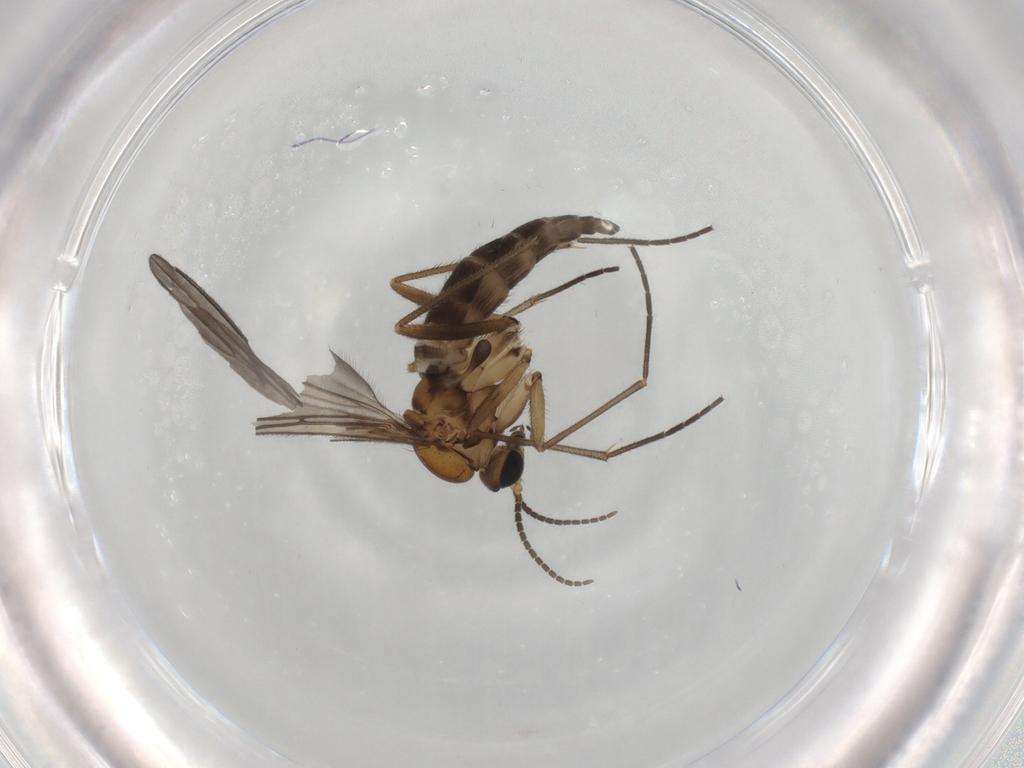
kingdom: Animalia
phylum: Arthropoda
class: Insecta
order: Diptera
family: Sciaridae
